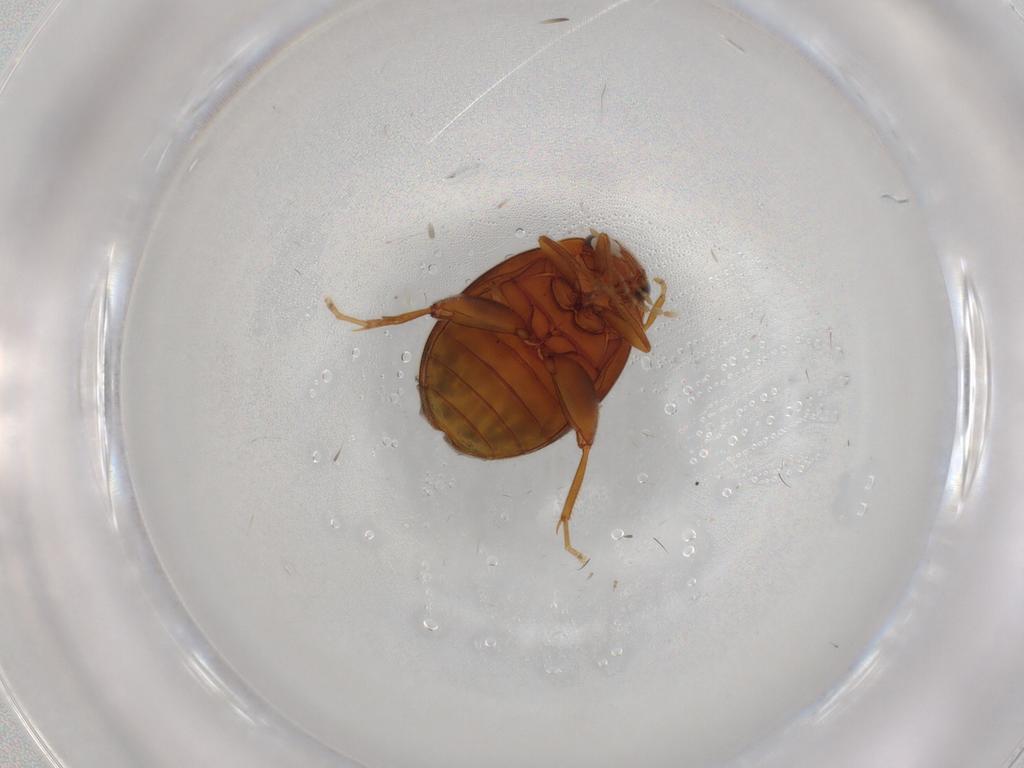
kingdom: Animalia
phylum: Arthropoda
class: Insecta
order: Coleoptera
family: Scirtidae
